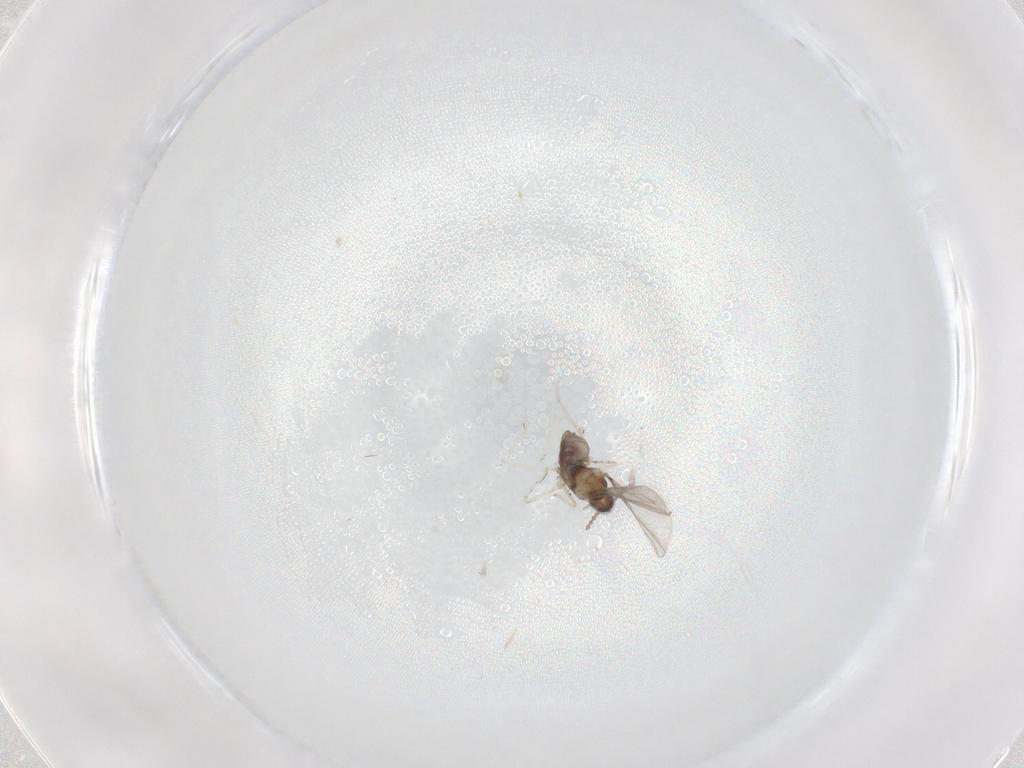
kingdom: Animalia
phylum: Arthropoda
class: Insecta
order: Diptera
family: Cecidomyiidae
